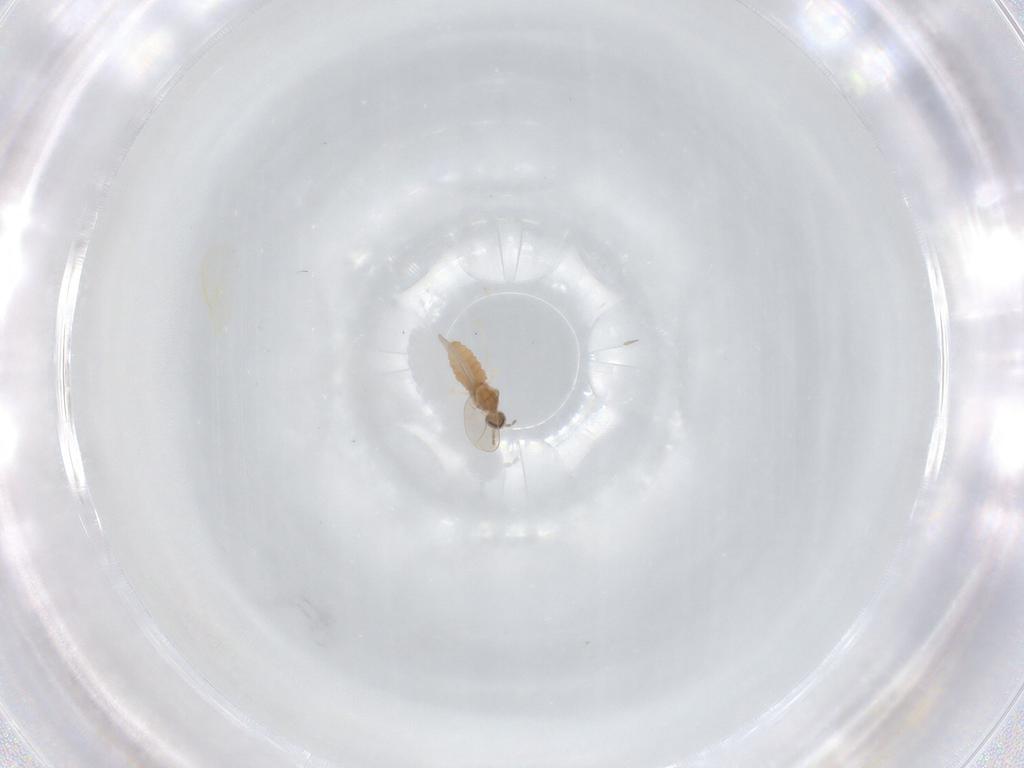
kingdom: Animalia
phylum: Arthropoda
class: Insecta
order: Diptera
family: Cecidomyiidae
